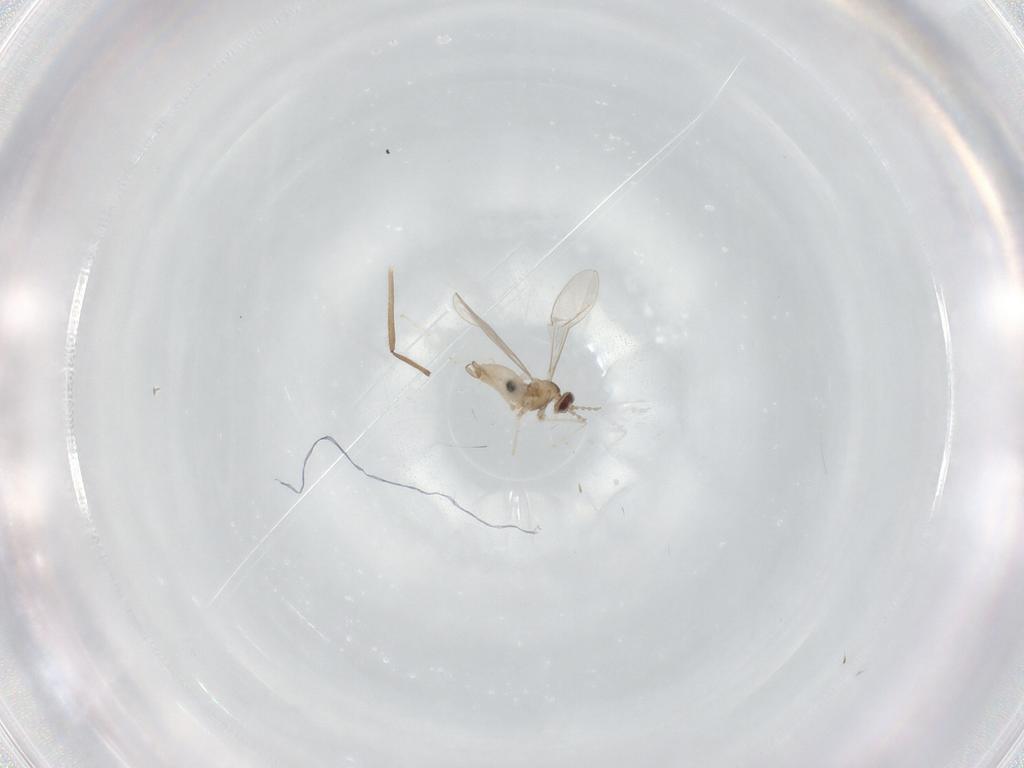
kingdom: Animalia
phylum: Arthropoda
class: Insecta
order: Diptera
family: Cecidomyiidae
